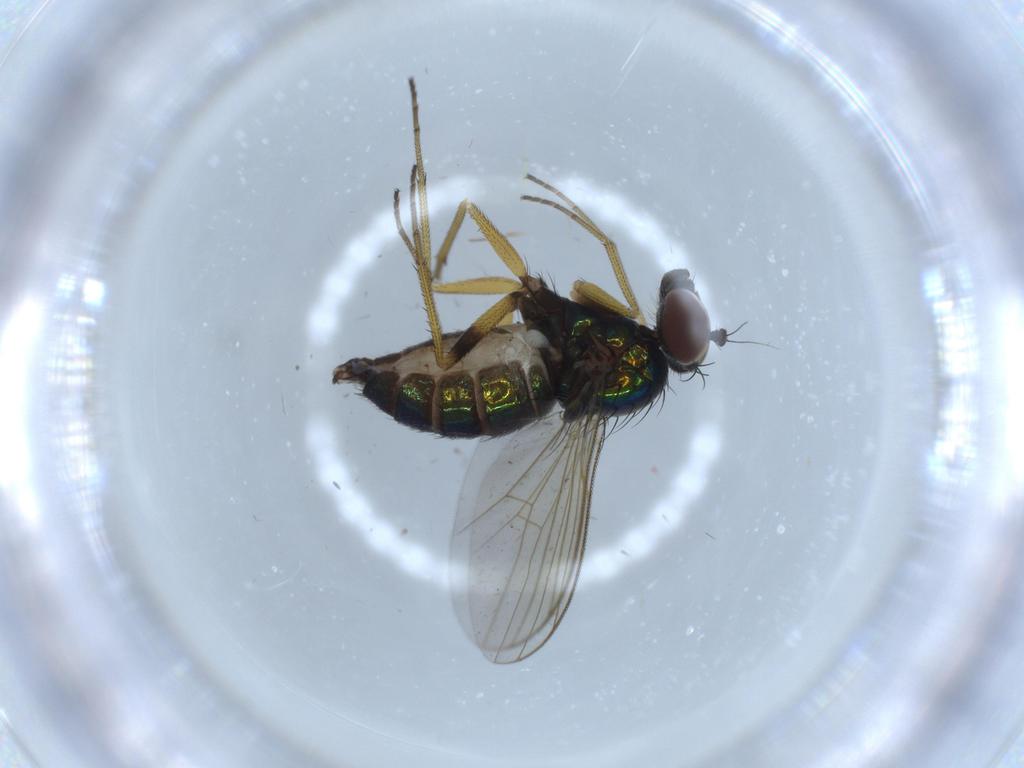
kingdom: Animalia
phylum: Arthropoda
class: Insecta
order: Diptera
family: Dolichopodidae
